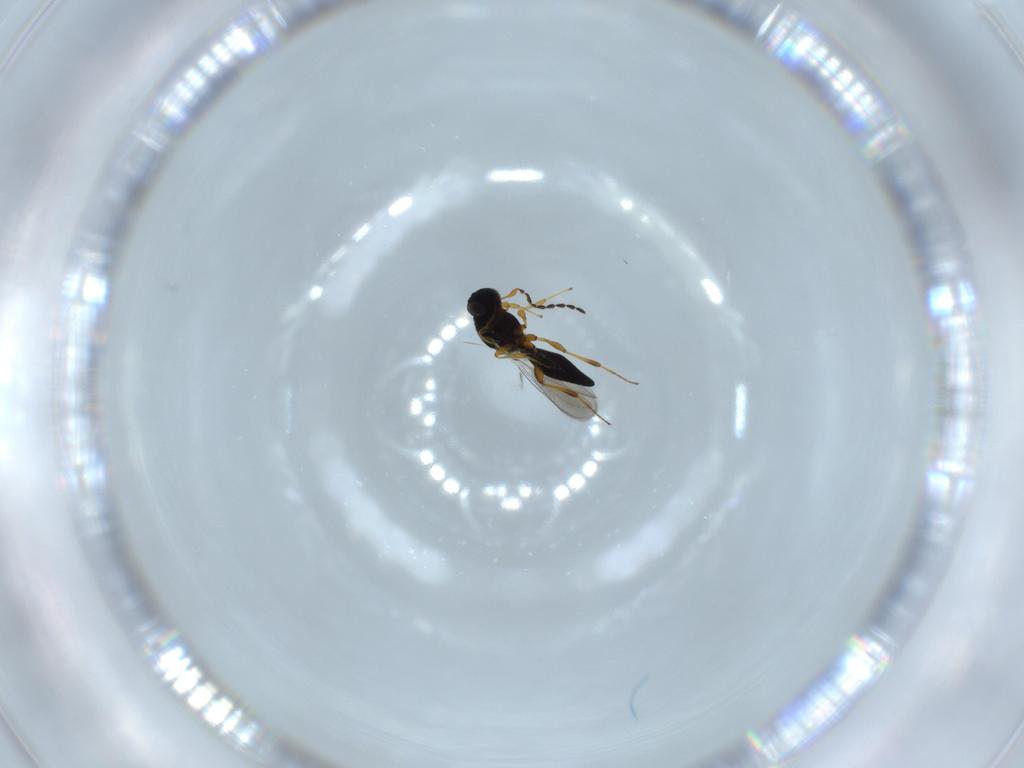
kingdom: Animalia
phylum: Arthropoda
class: Insecta
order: Hymenoptera
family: Platygastridae
